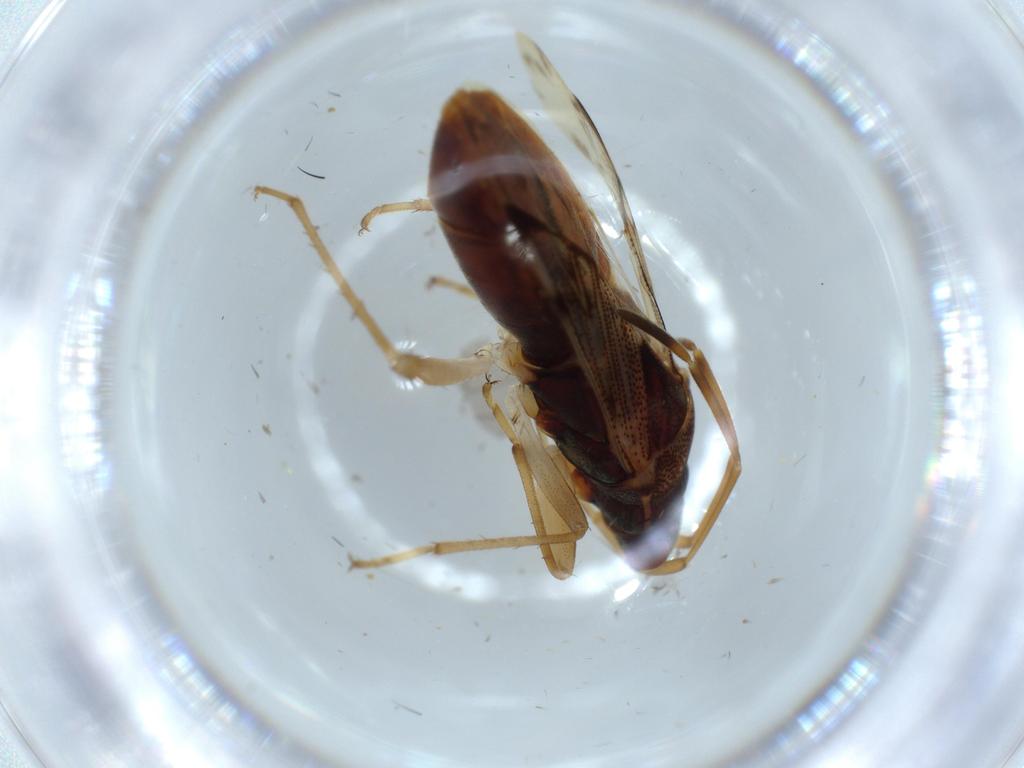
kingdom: Animalia
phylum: Arthropoda
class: Insecta
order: Hemiptera
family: Rhyparochromidae
